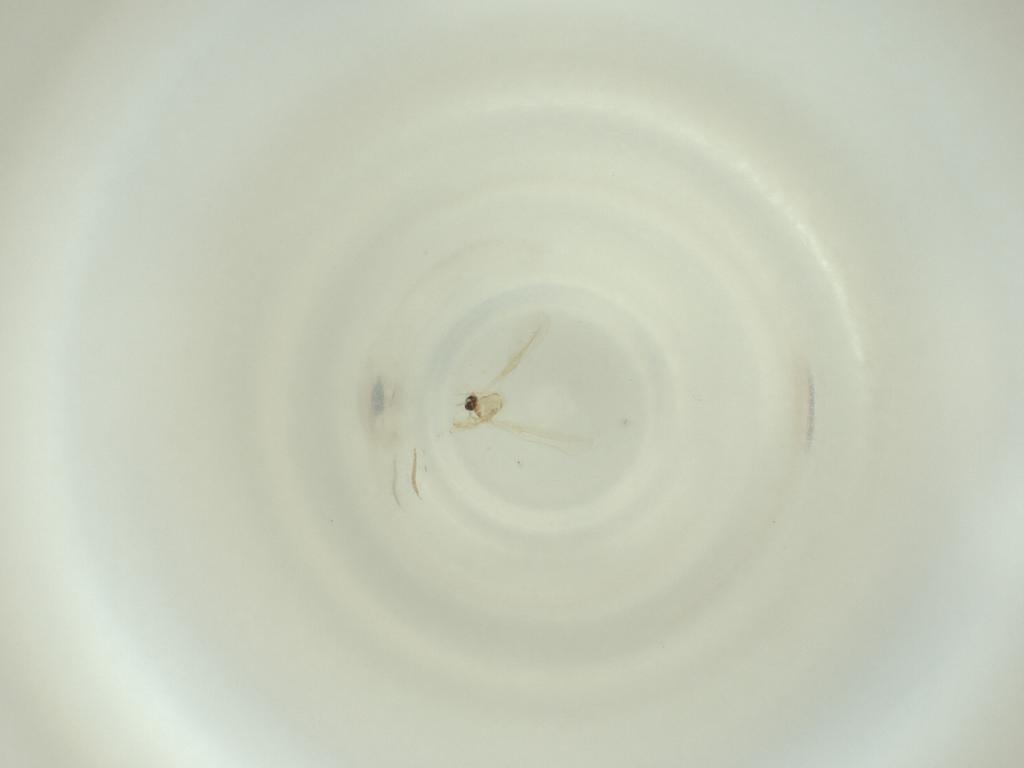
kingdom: Animalia
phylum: Arthropoda
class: Insecta
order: Diptera
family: Cecidomyiidae
